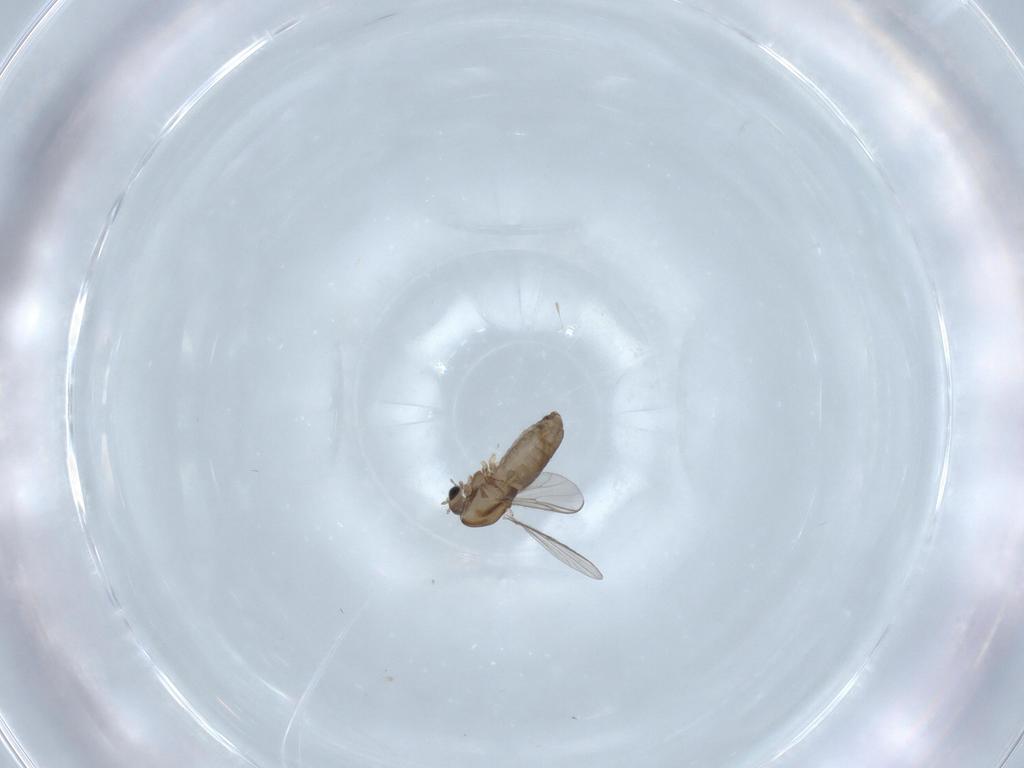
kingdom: Animalia
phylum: Arthropoda
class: Insecta
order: Diptera
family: Chironomidae
